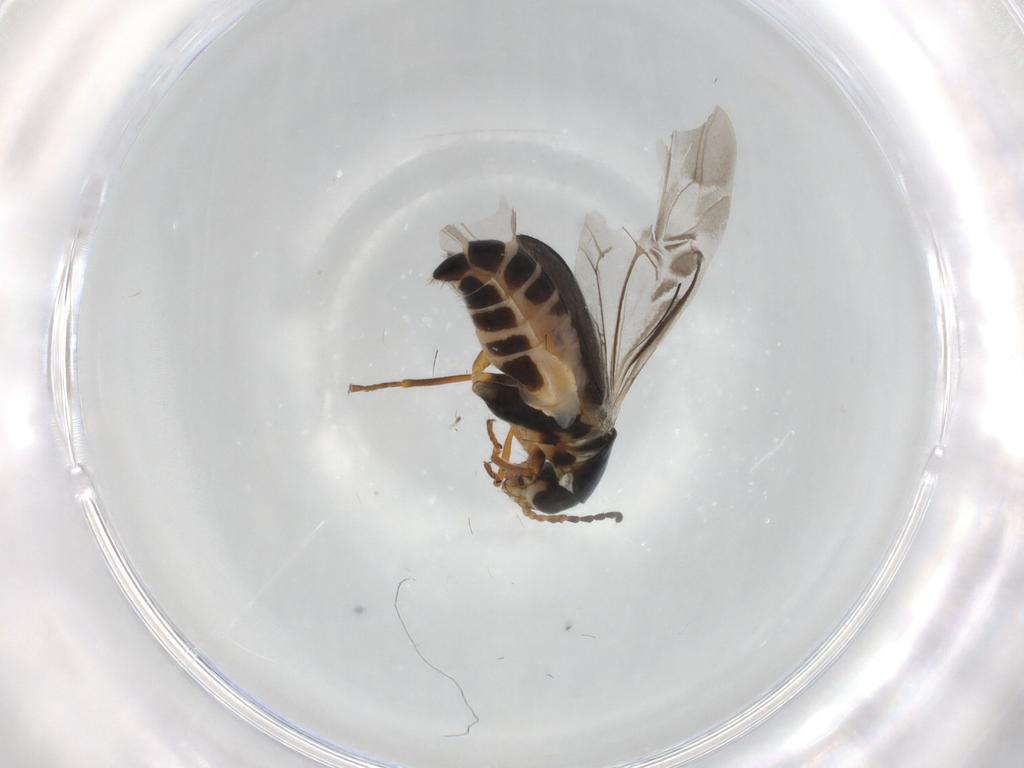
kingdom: Animalia
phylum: Arthropoda
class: Insecta
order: Coleoptera
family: Melyridae
